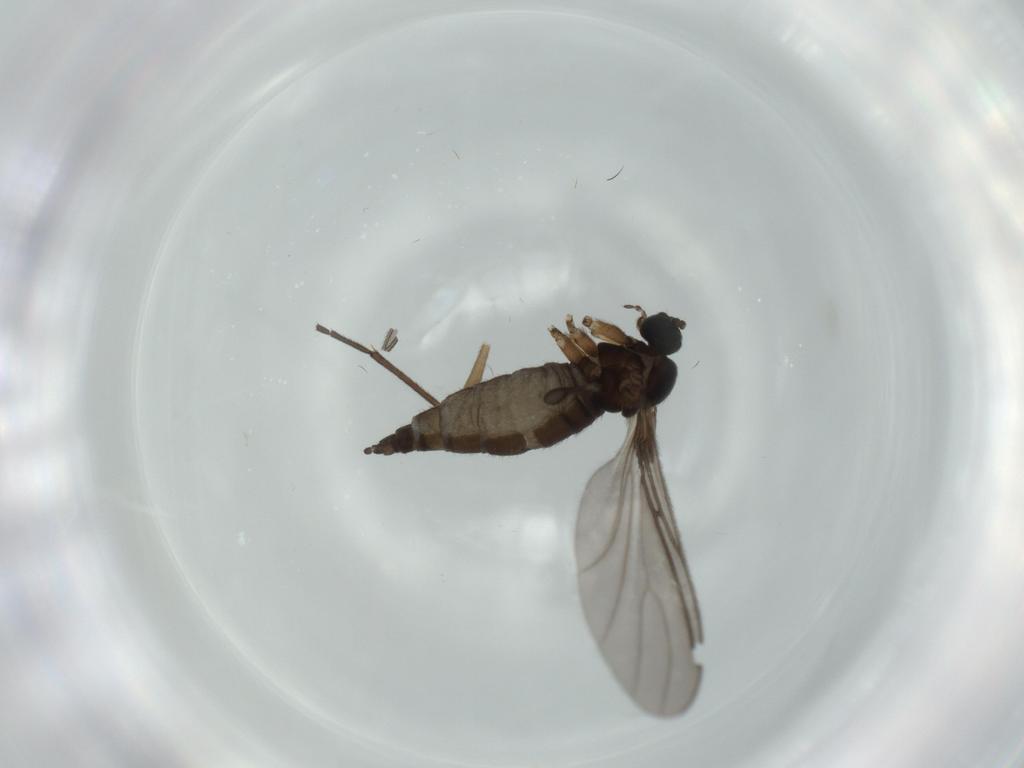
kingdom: Animalia
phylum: Arthropoda
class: Insecta
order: Diptera
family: Sciaridae
